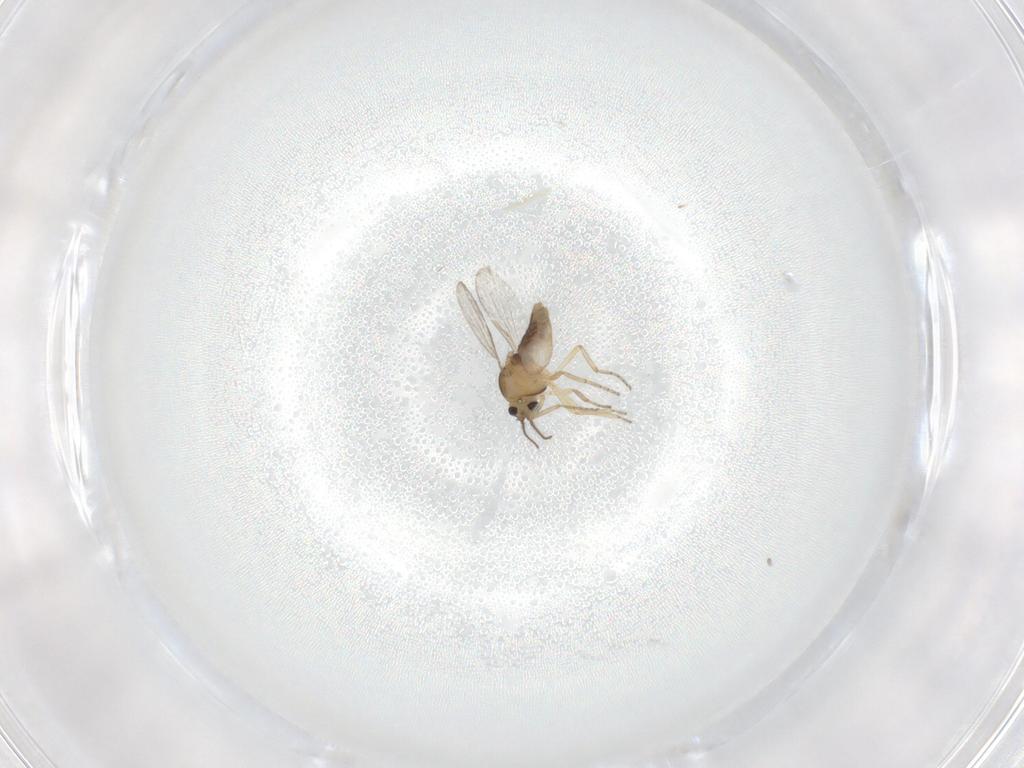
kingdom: Animalia
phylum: Arthropoda
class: Insecta
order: Diptera
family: Ceratopogonidae
